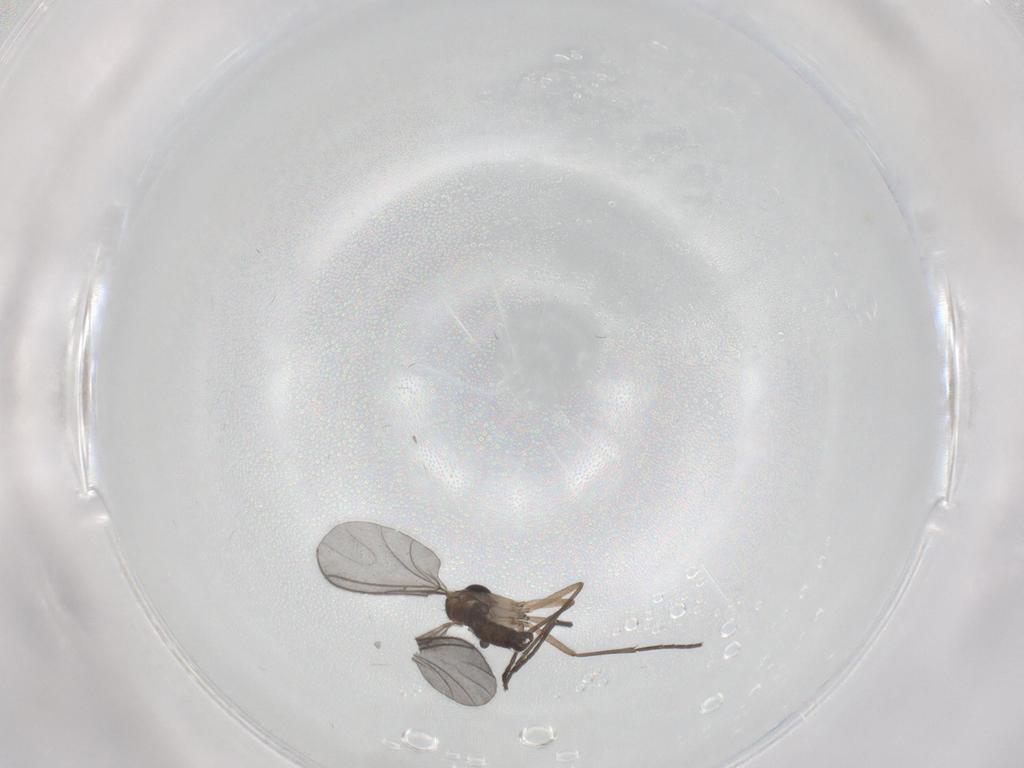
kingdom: Animalia
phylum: Arthropoda
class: Insecta
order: Diptera
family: Sciaridae
